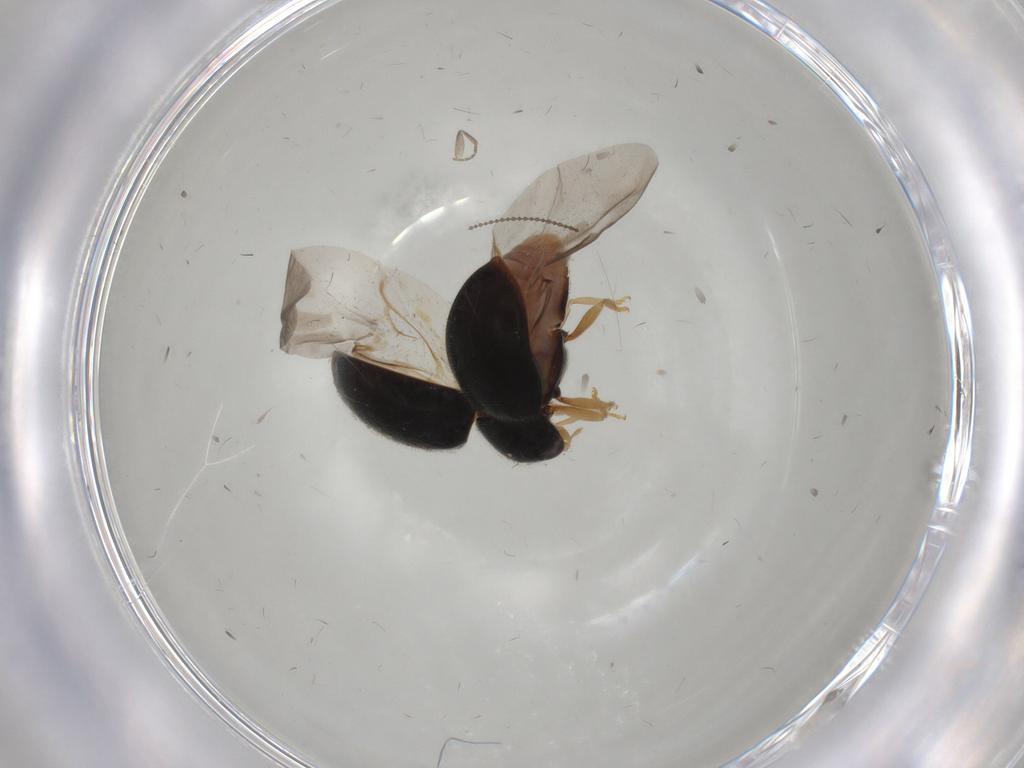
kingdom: Animalia
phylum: Arthropoda
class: Insecta
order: Coleoptera
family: Coccinellidae
